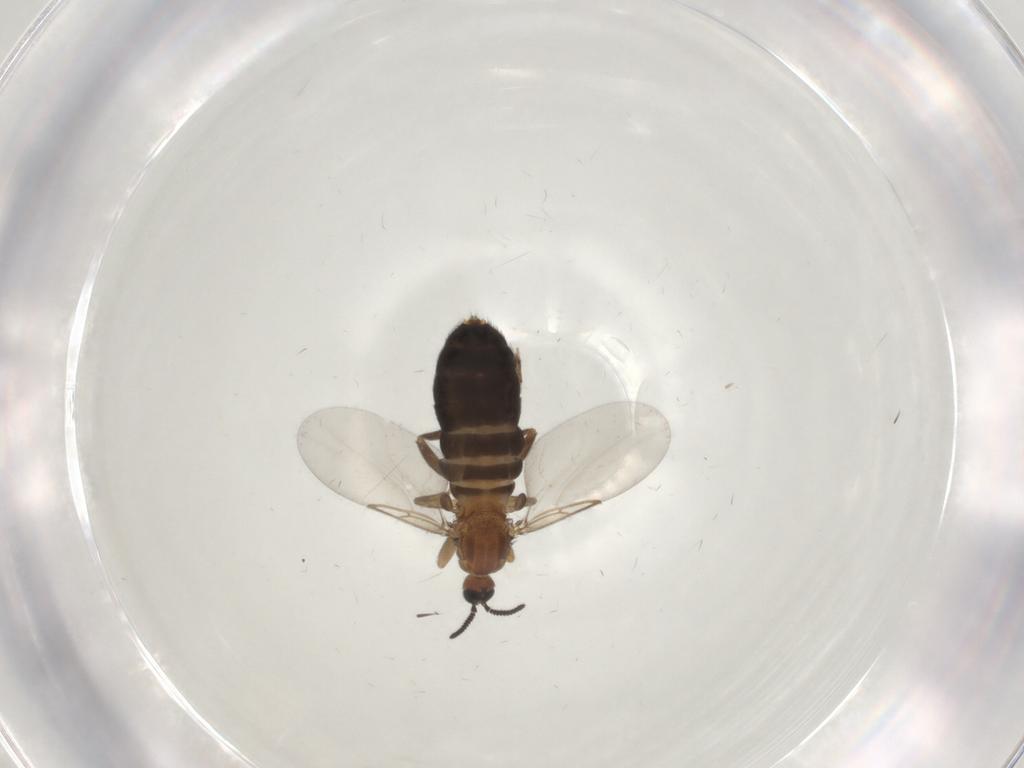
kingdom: Animalia
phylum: Arthropoda
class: Insecta
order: Diptera
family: Scatopsidae
